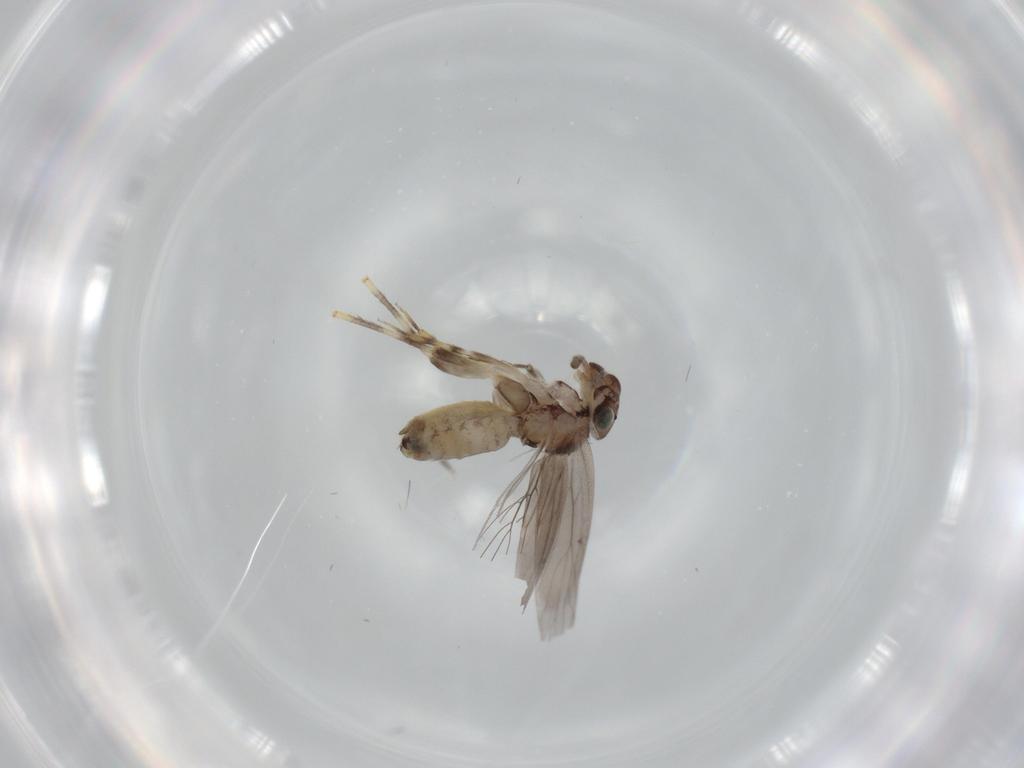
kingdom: Animalia
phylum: Arthropoda
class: Insecta
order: Psocodea
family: Lepidopsocidae
